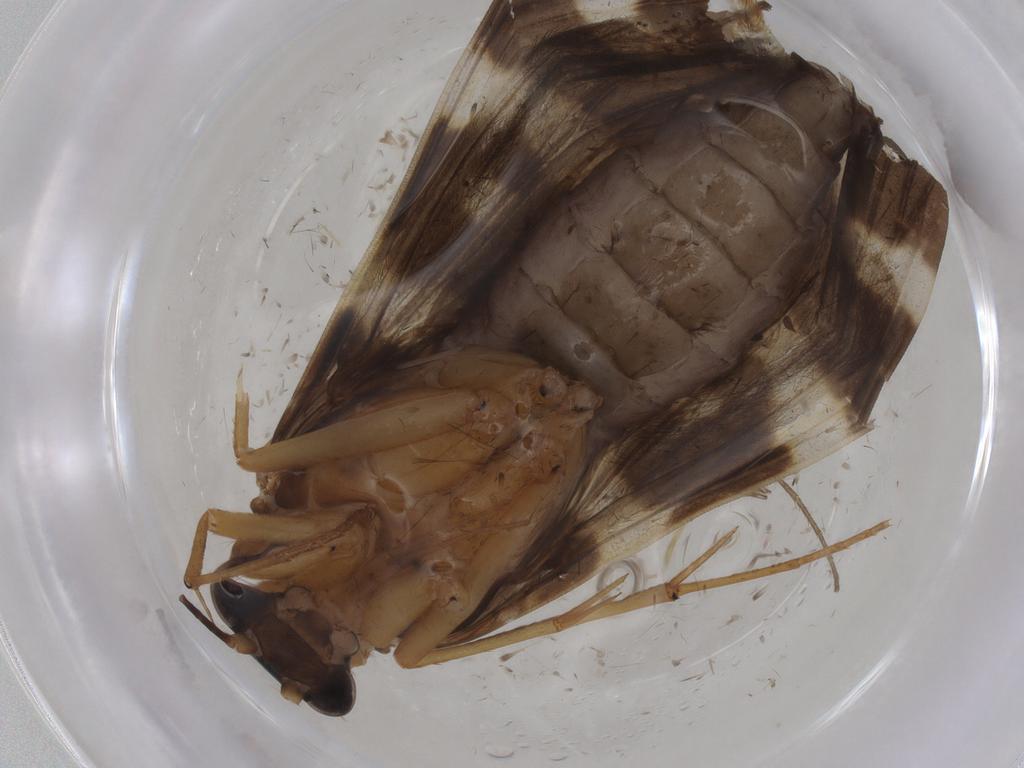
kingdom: Animalia
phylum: Arthropoda
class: Insecta
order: Lepidoptera
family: Lecithoceridae
